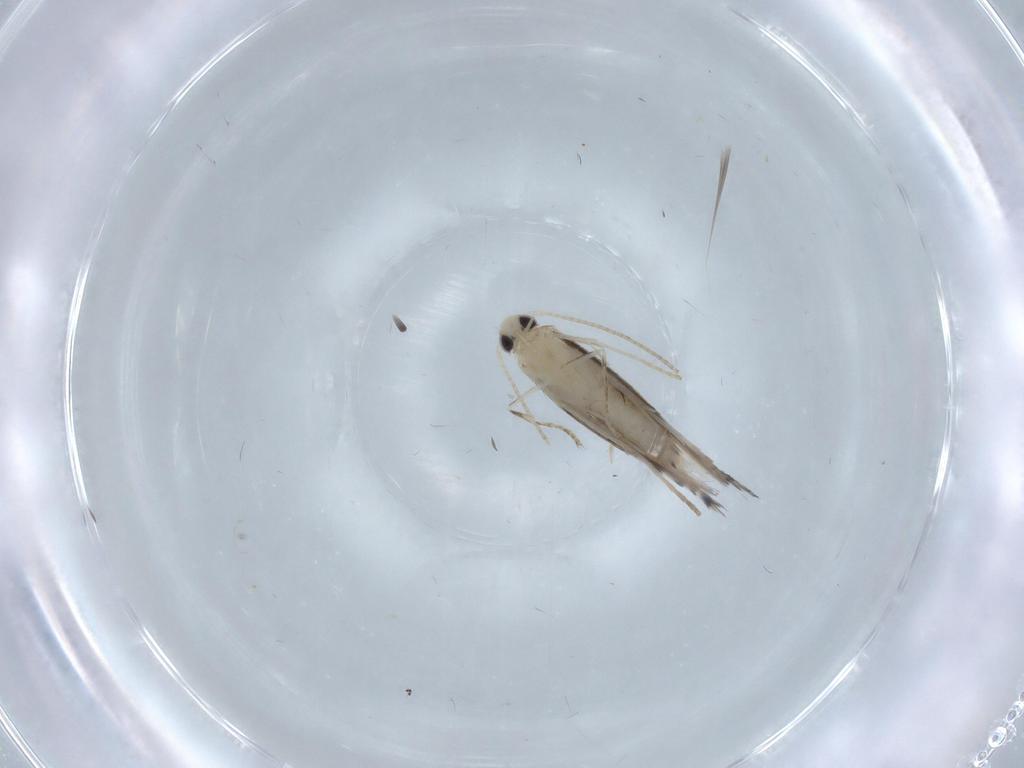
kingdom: Animalia
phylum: Arthropoda
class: Insecta
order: Lepidoptera
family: Gracillariidae
